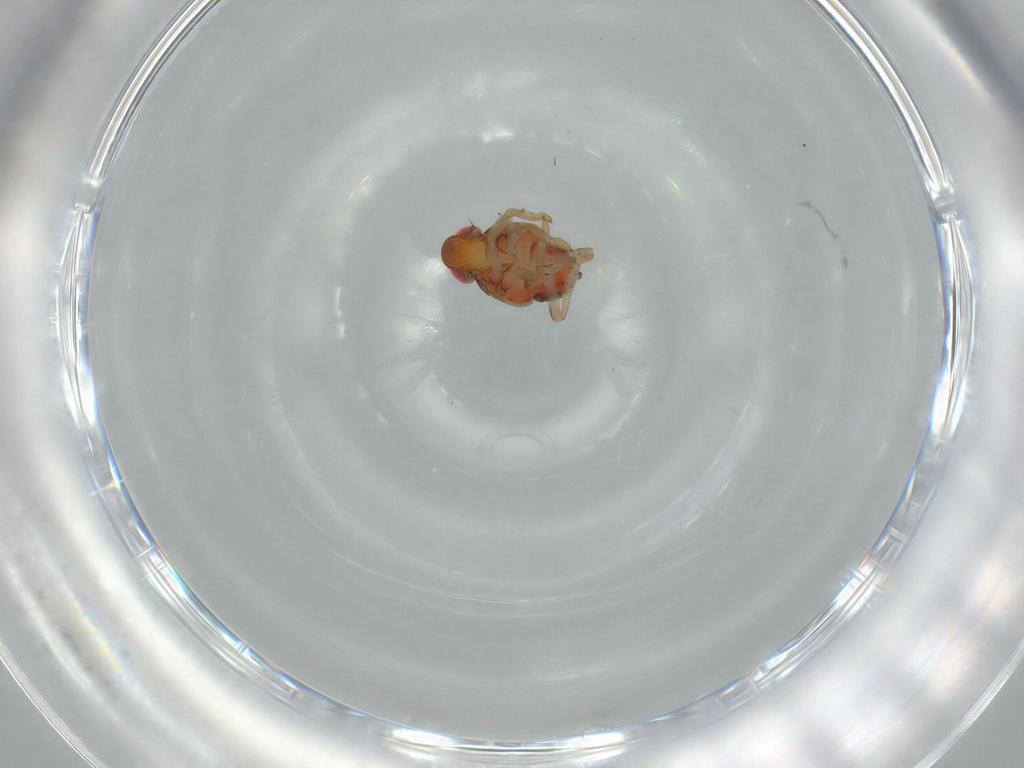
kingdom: Animalia
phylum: Arthropoda
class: Insecta
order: Hemiptera
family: Issidae
